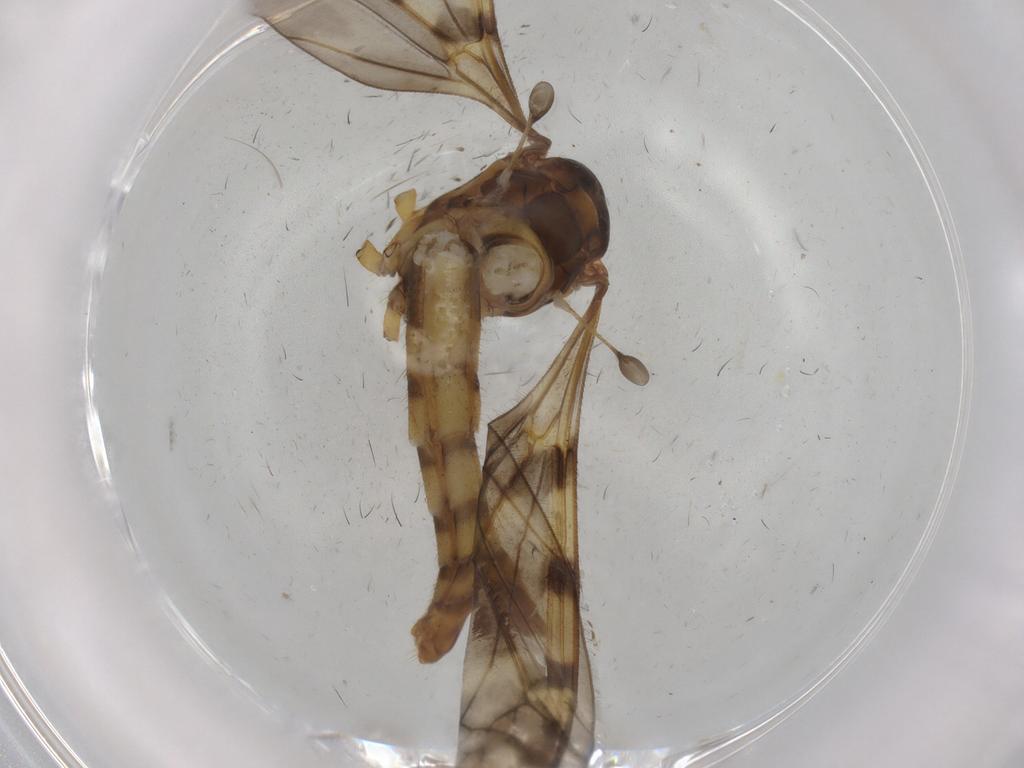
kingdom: Animalia
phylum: Arthropoda
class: Insecta
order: Diptera
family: Tipulidae
